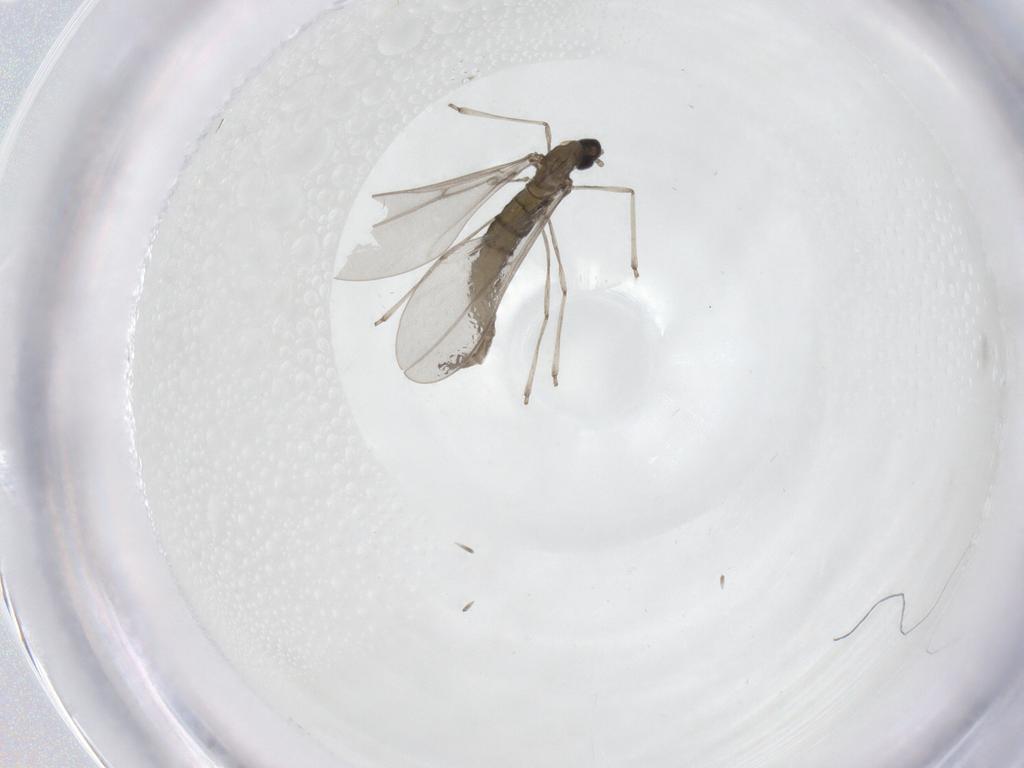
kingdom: Animalia
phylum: Arthropoda
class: Insecta
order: Diptera
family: Cecidomyiidae
